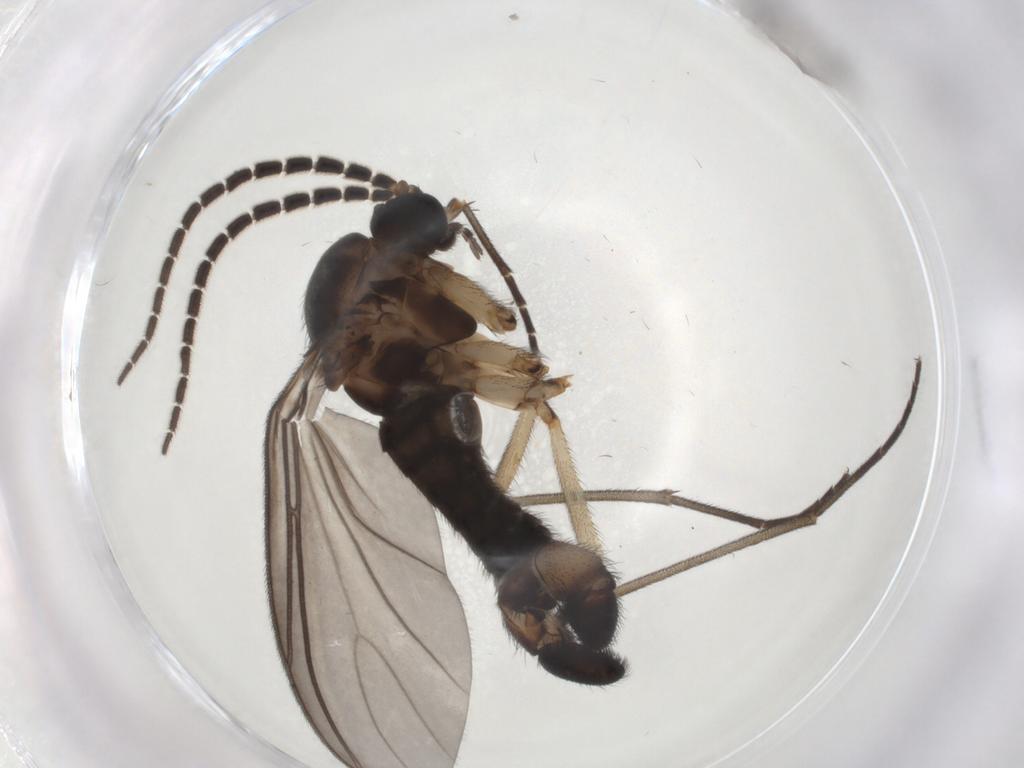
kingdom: Animalia
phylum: Arthropoda
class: Insecta
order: Diptera
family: Sciaridae
